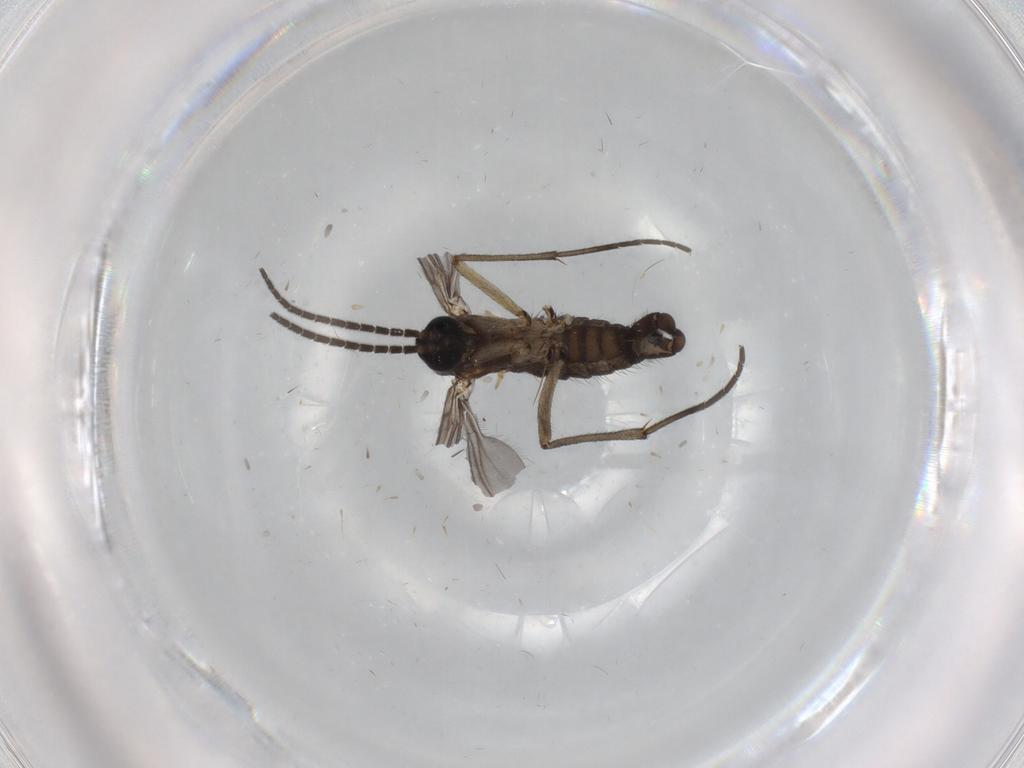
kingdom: Animalia
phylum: Arthropoda
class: Insecta
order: Diptera
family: Sciaridae
